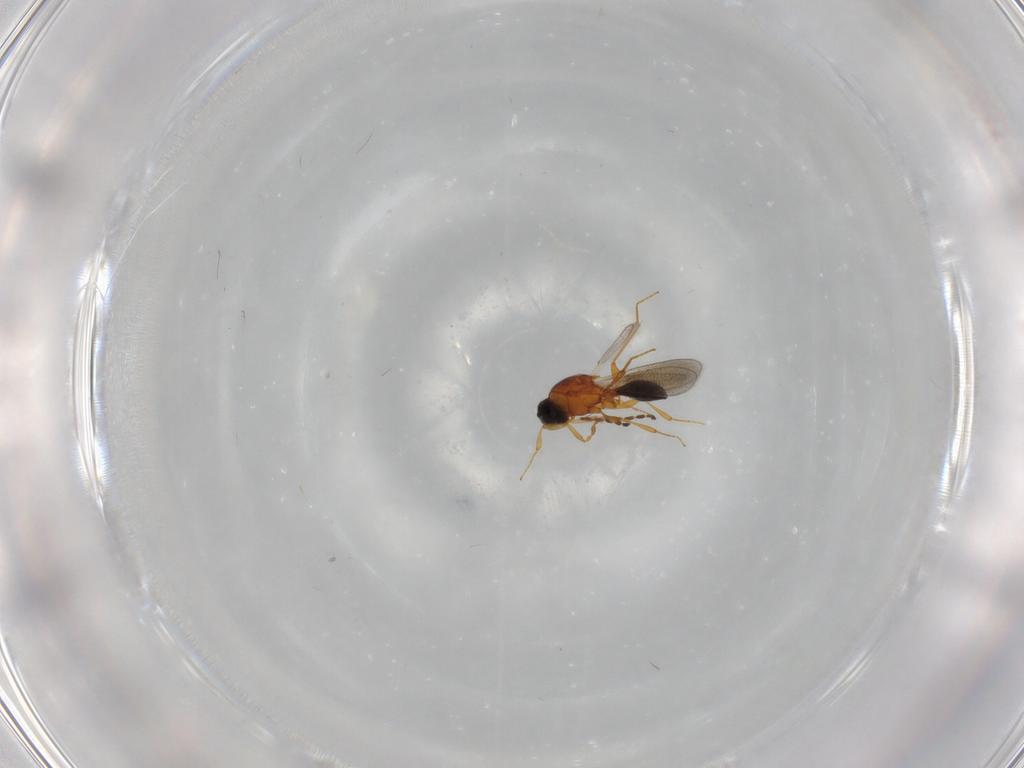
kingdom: Animalia
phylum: Arthropoda
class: Insecta
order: Hymenoptera
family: Platygastridae
